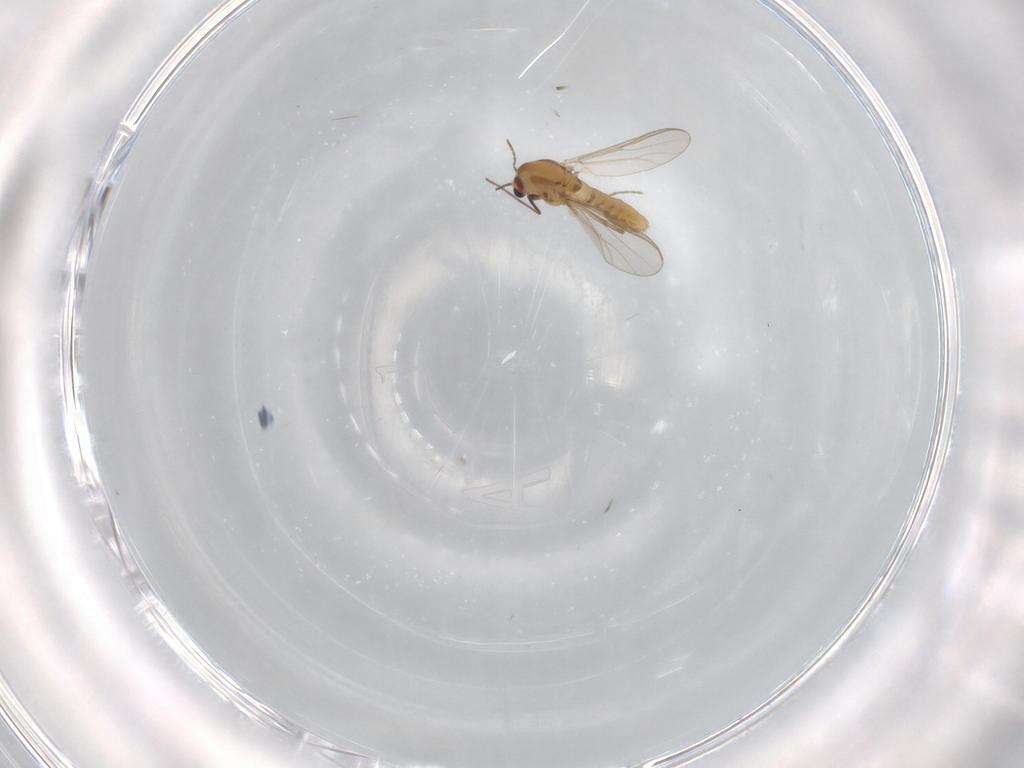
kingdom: Animalia
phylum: Arthropoda
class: Insecta
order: Diptera
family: Chironomidae
